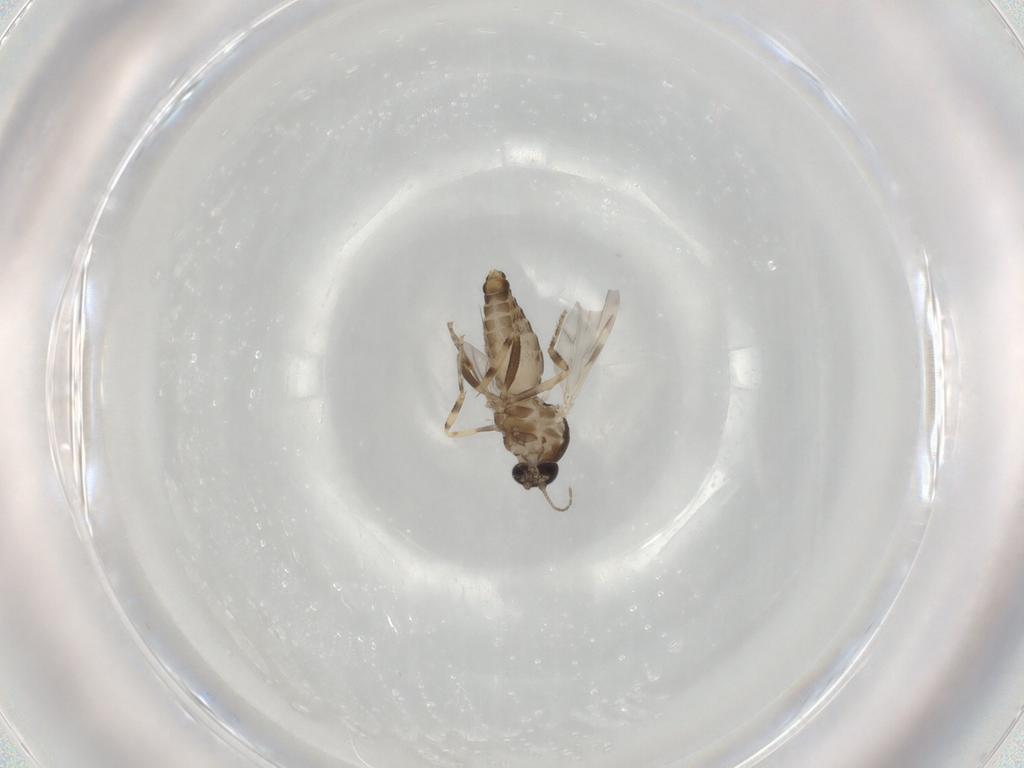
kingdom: Animalia
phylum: Arthropoda
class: Insecta
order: Diptera
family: Ceratopogonidae
